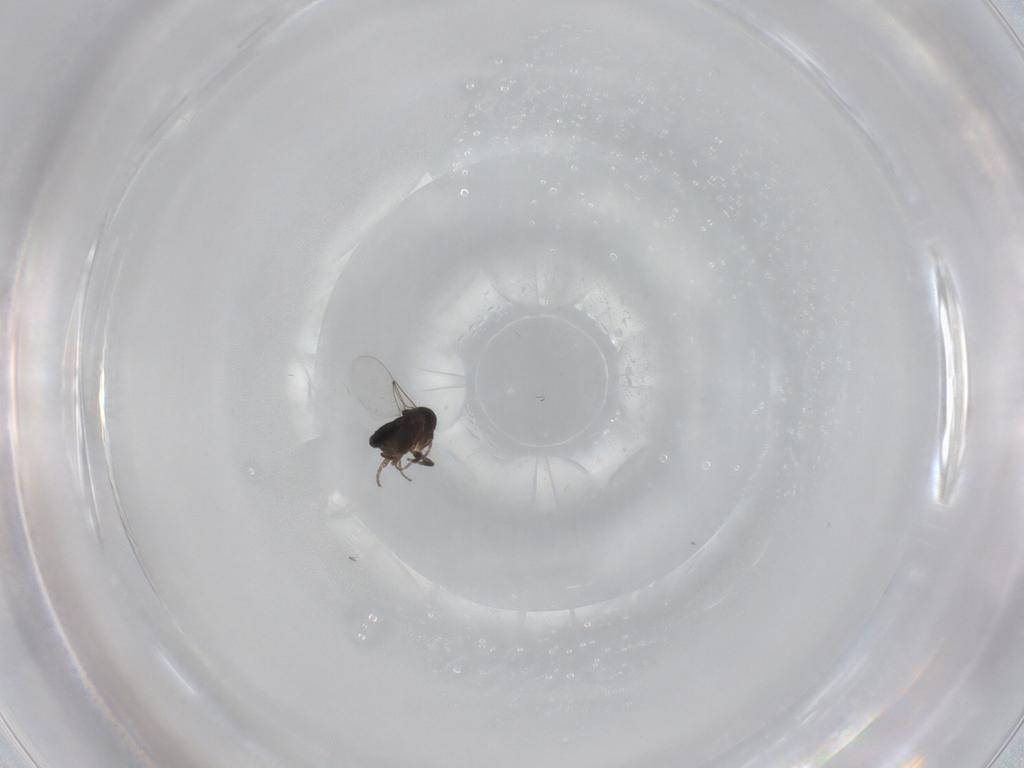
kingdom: Animalia
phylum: Arthropoda
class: Insecta
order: Diptera
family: Phoridae
